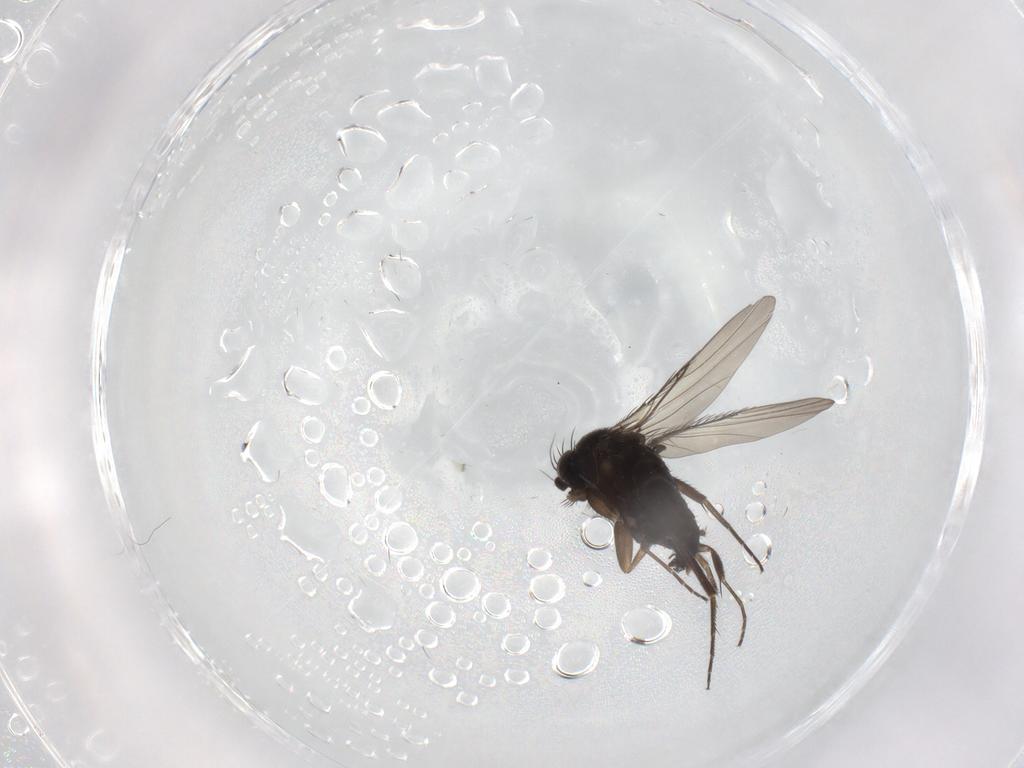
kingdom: Animalia
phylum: Arthropoda
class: Insecta
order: Diptera
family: Phoridae
